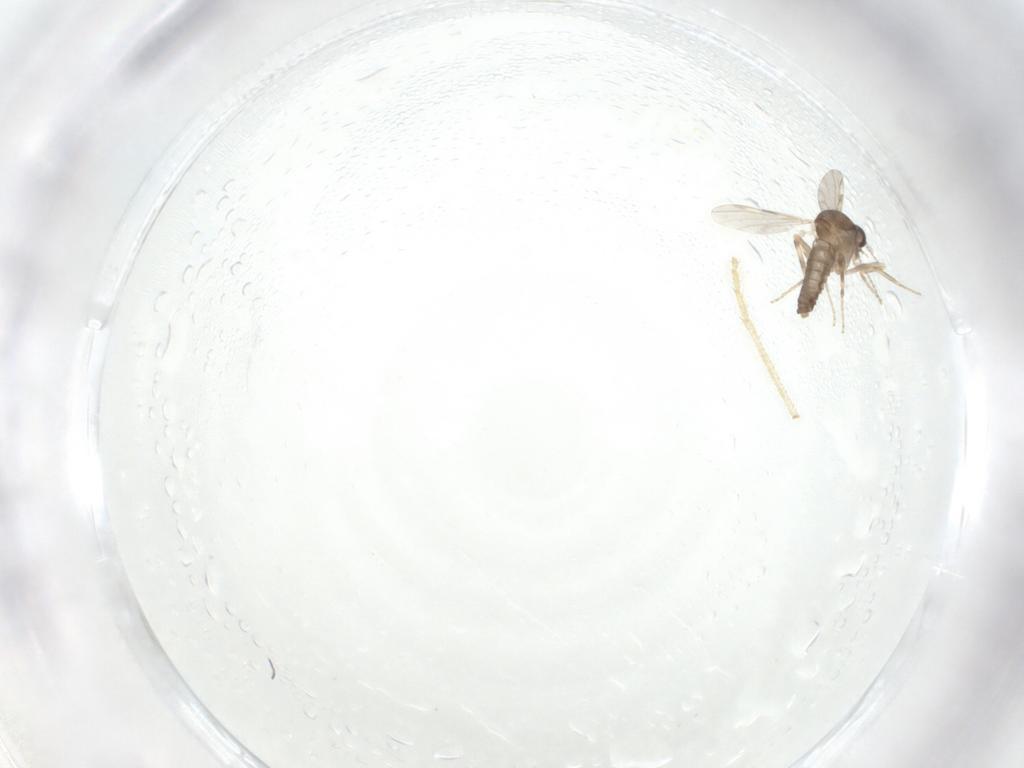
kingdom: Animalia
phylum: Arthropoda
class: Insecta
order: Diptera
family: Ceratopogonidae
